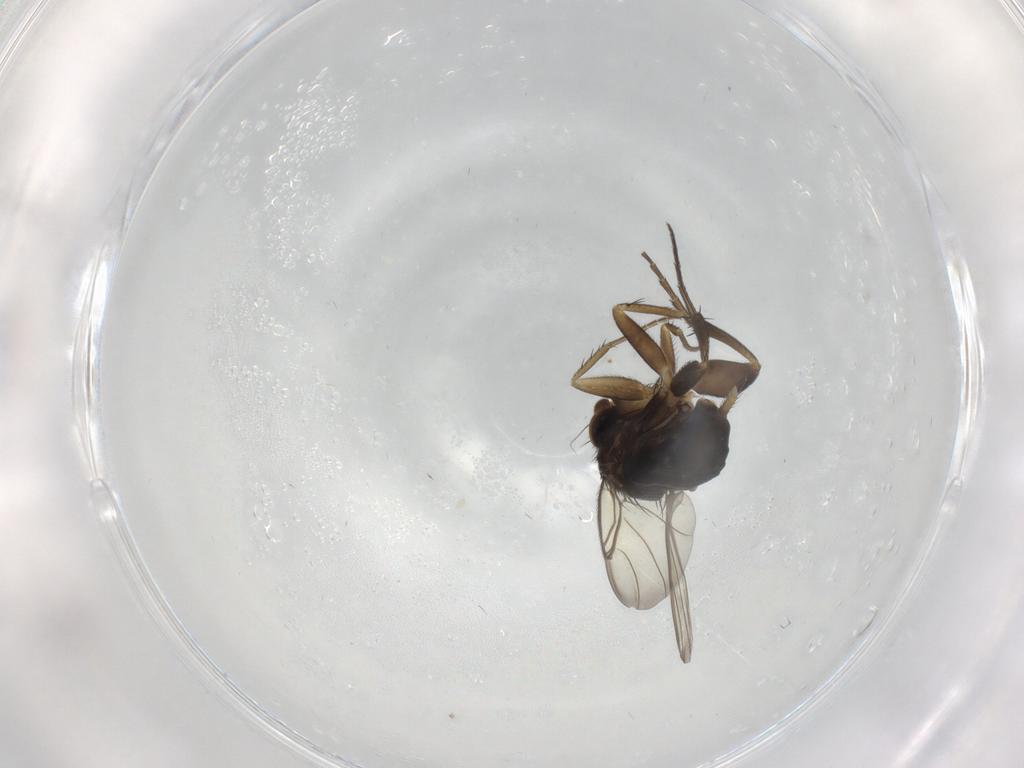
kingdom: Animalia
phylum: Arthropoda
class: Insecta
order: Diptera
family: Phoridae
